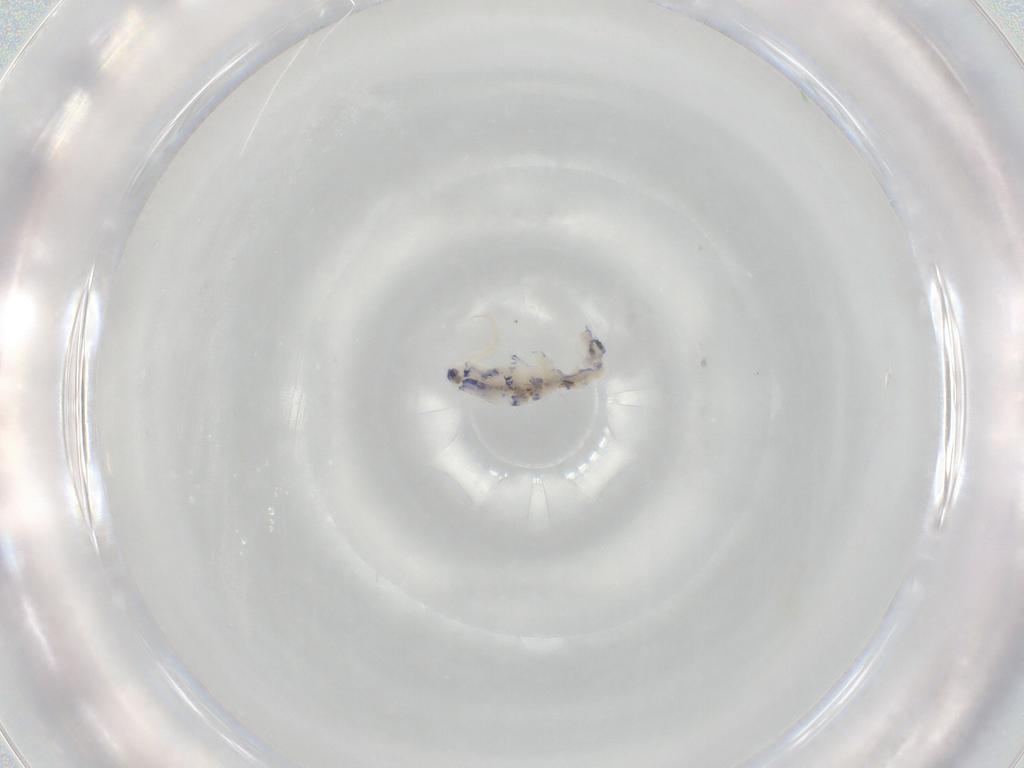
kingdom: Animalia
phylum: Arthropoda
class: Collembola
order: Entomobryomorpha
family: Entomobryidae
